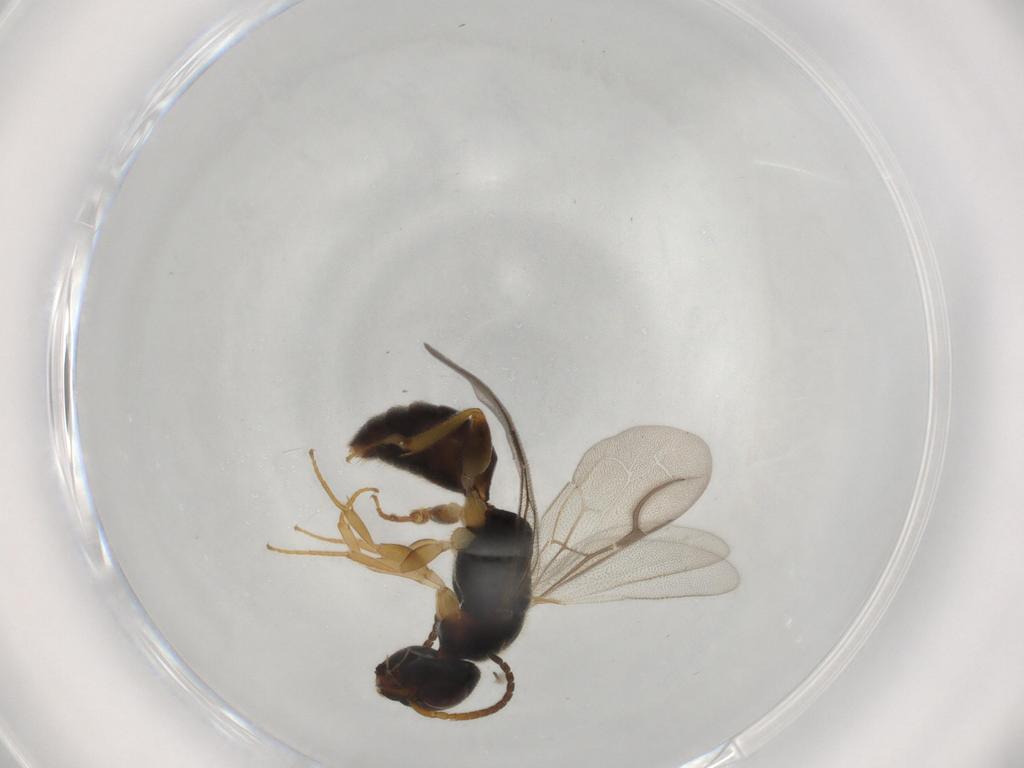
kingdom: Animalia
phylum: Arthropoda
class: Insecta
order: Hymenoptera
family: Bethylidae
